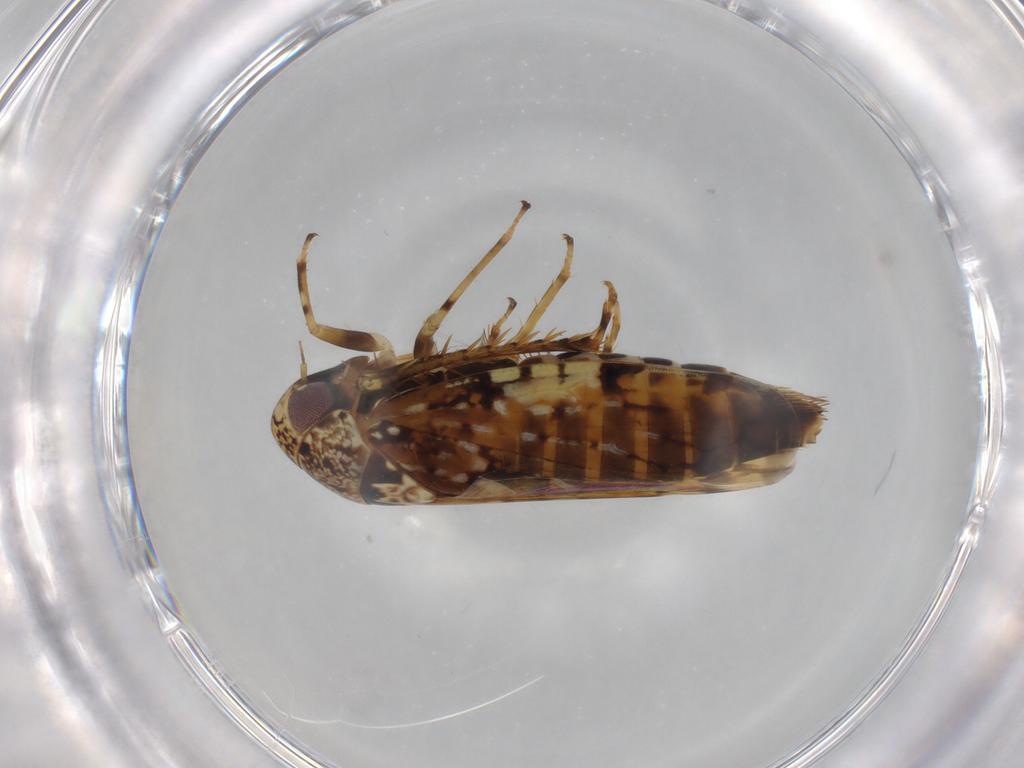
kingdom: Animalia
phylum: Arthropoda
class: Insecta
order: Hemiptera
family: Cicadellidae
